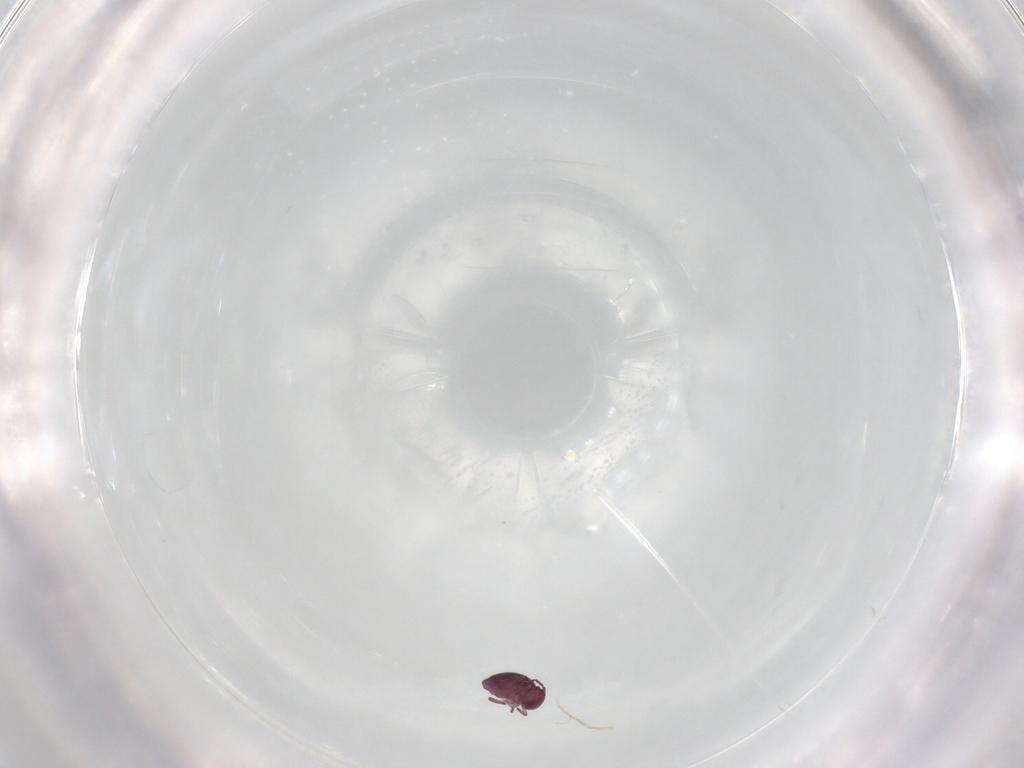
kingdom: Animalia
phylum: Arthropoda
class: Collembola
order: Symphypleona
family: Sminthurididae
